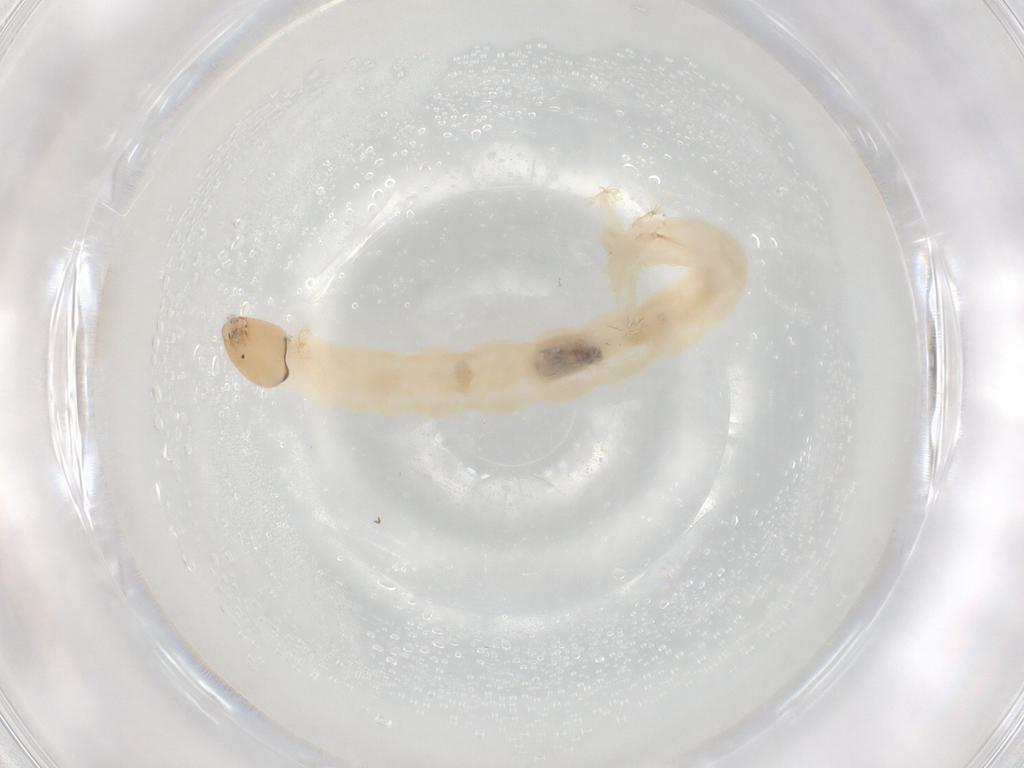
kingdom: Animalia
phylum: Arthropoda
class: Insecta
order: Diptera
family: Chironomidae
